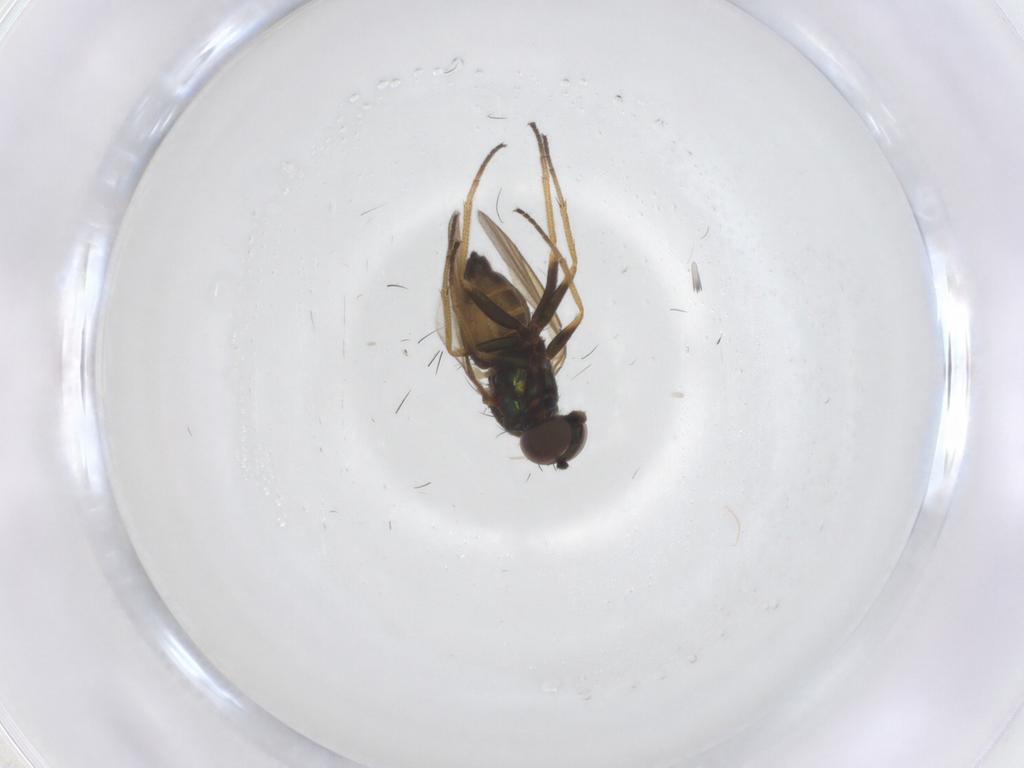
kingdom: Animalia
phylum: Arthropoda
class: Insecta
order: Diptera
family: Dolichopodidae
